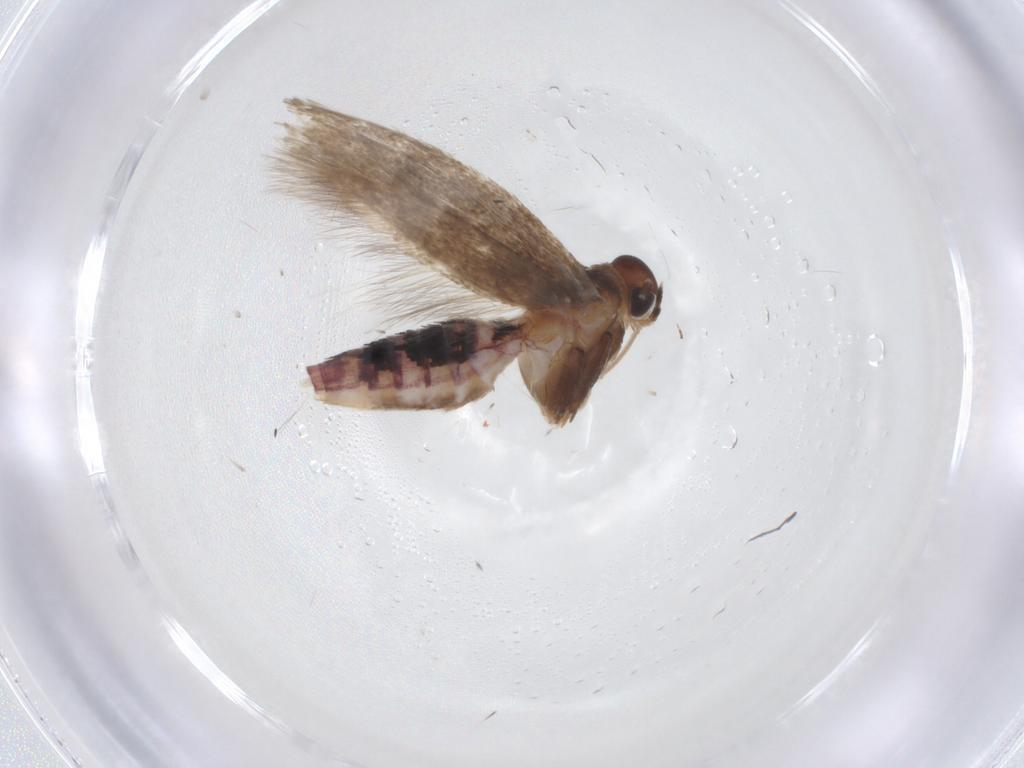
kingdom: Animalia
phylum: Arthropoda
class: Insecta
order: Lepidoptera
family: Cosmopterigidae
